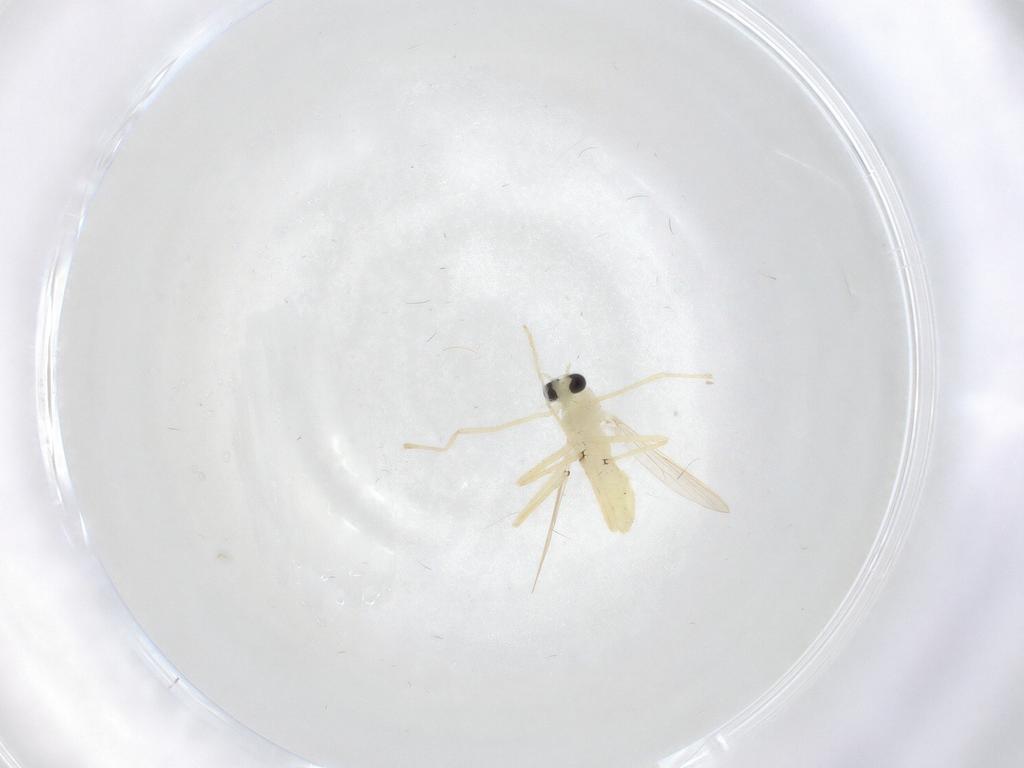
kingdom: Animalia
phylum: Arthropoda
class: Insecta
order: Diptera
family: Chironomidae
